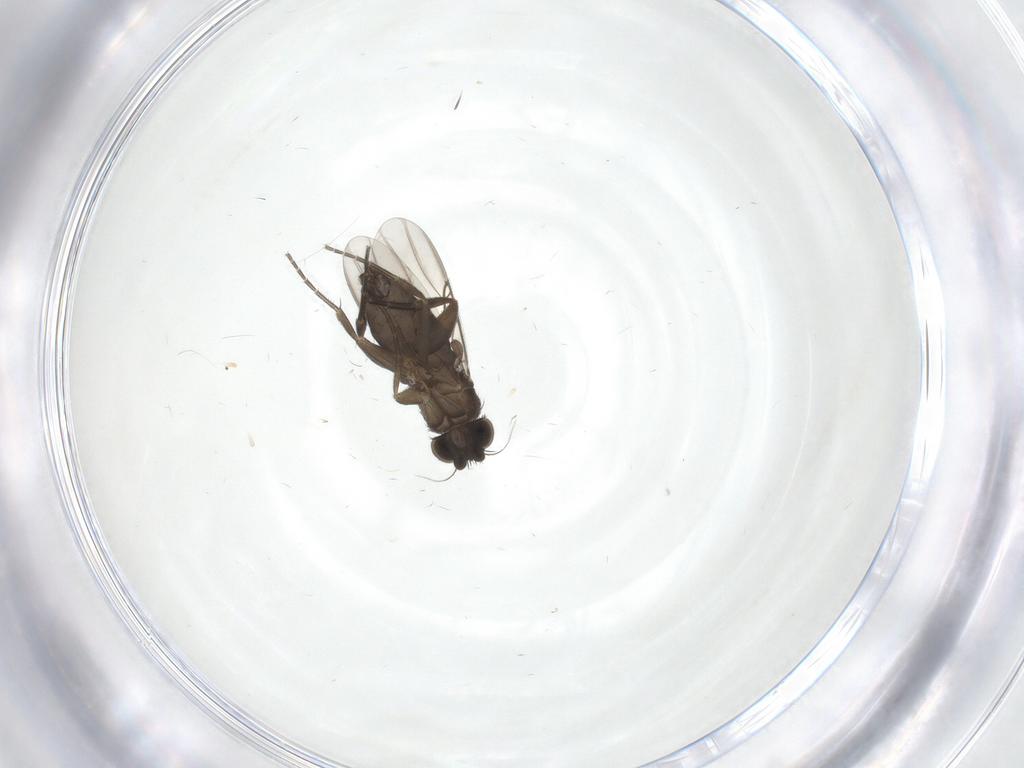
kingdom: Animalia
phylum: Arthropoda
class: Insecta
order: Diptera
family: Phoridae
